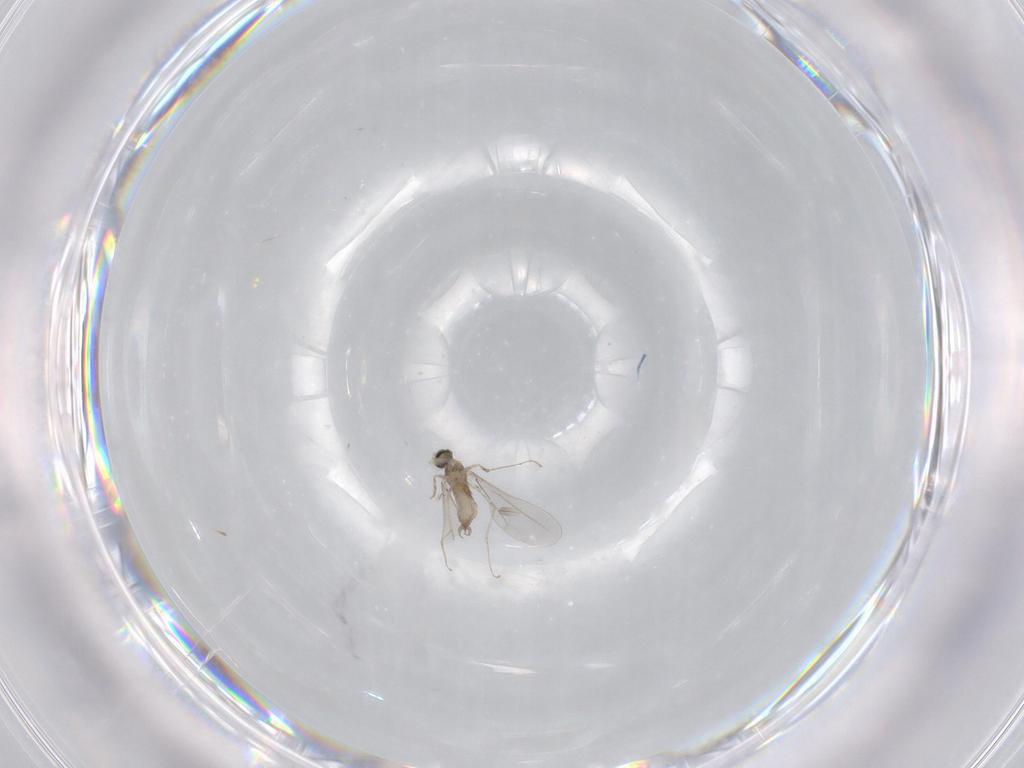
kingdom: Animalia
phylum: Arthropoda
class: Insecta
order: Diptera
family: Cecidomyiidae
